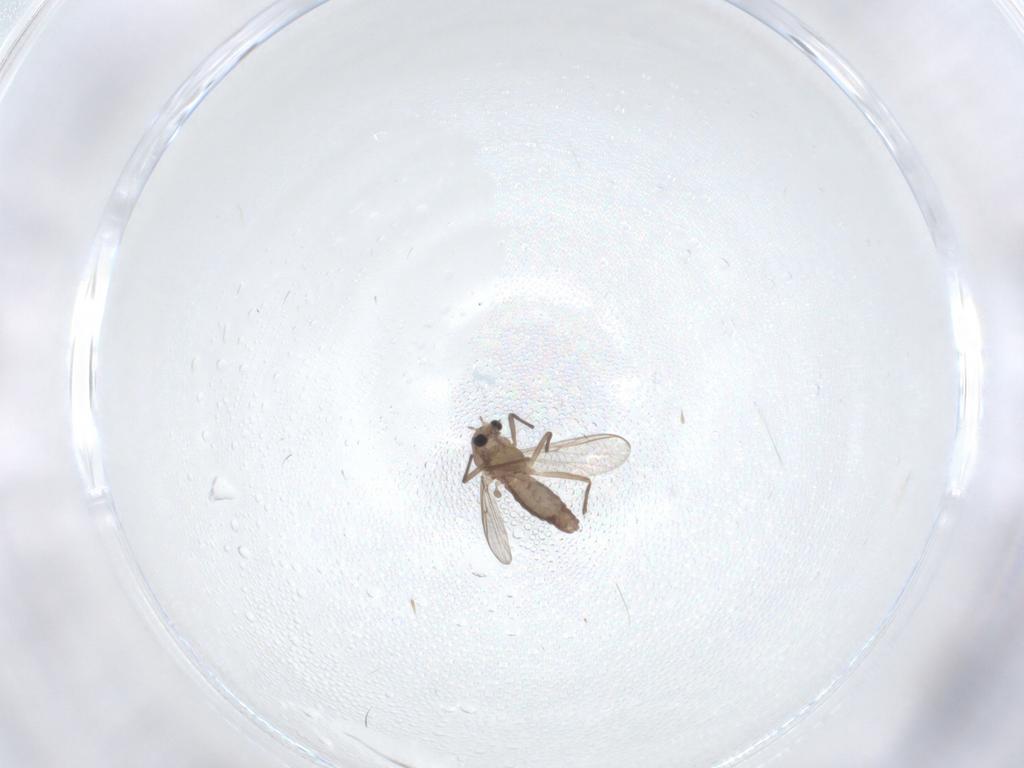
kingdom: Animalia
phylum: Arthropoda
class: Insecta
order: Diptera
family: Chironomidae
